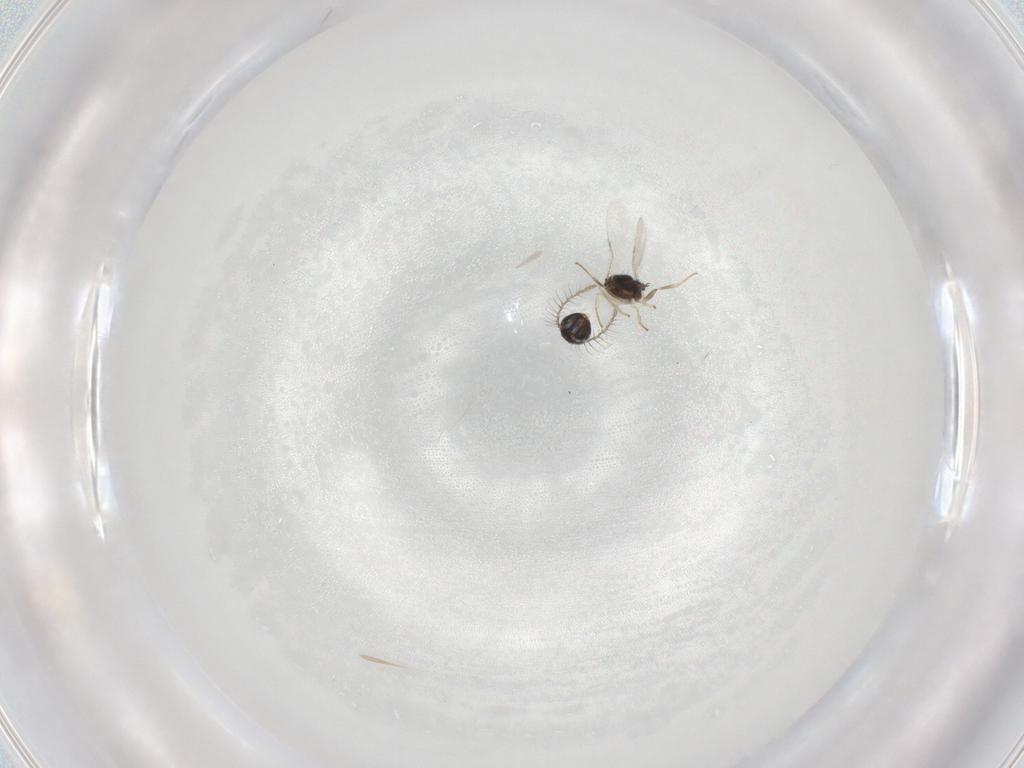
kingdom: Animalia
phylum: Arthropoda
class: Insecta
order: Hymenoptera
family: Encyrtidae
